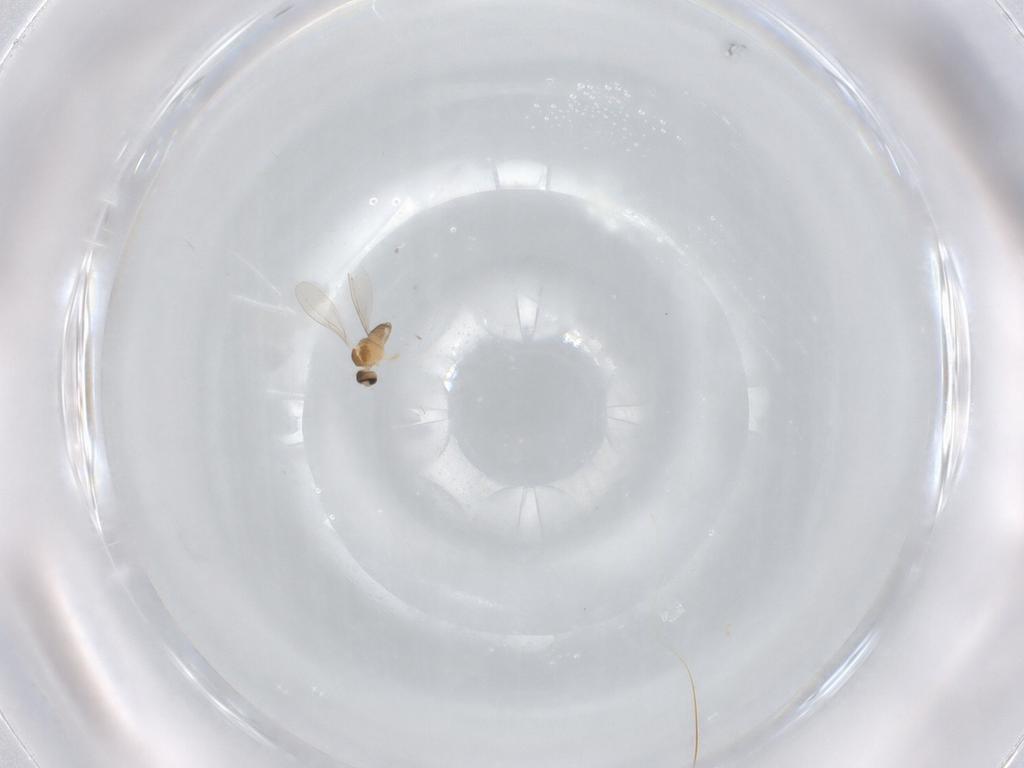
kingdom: Animalia
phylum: Arthropoda
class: Insecta
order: Diptera
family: Cecidomyiidae
